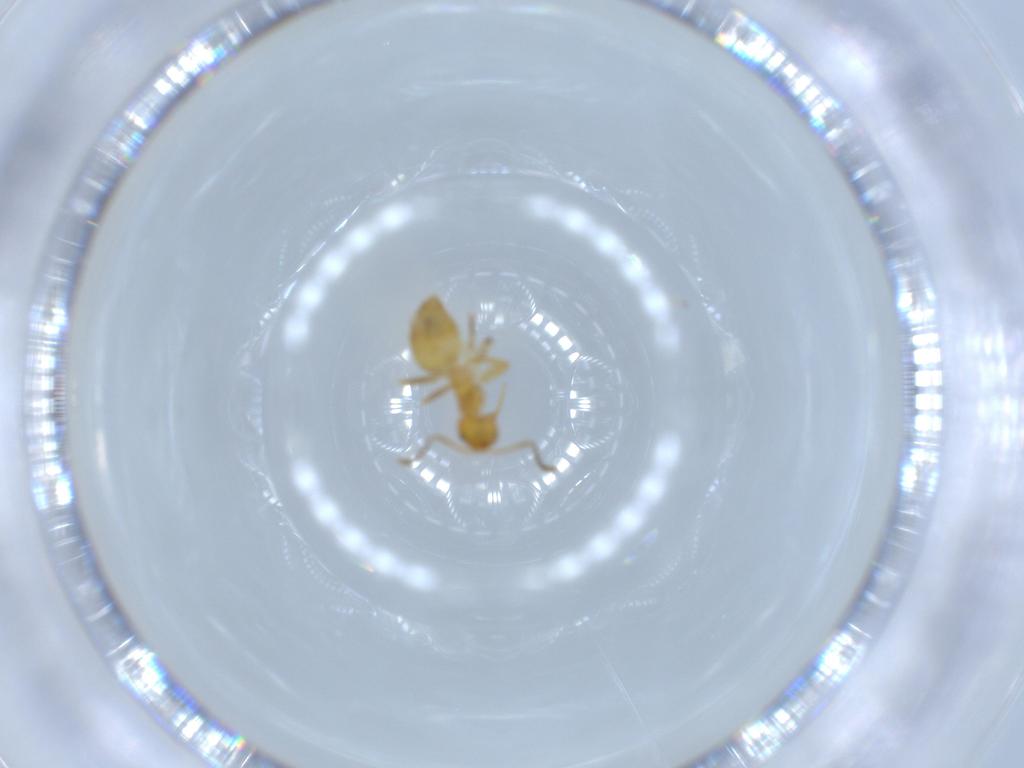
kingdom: Animalia
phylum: Arthropoda
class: Insecta
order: Hymenoptera
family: Formicidae
